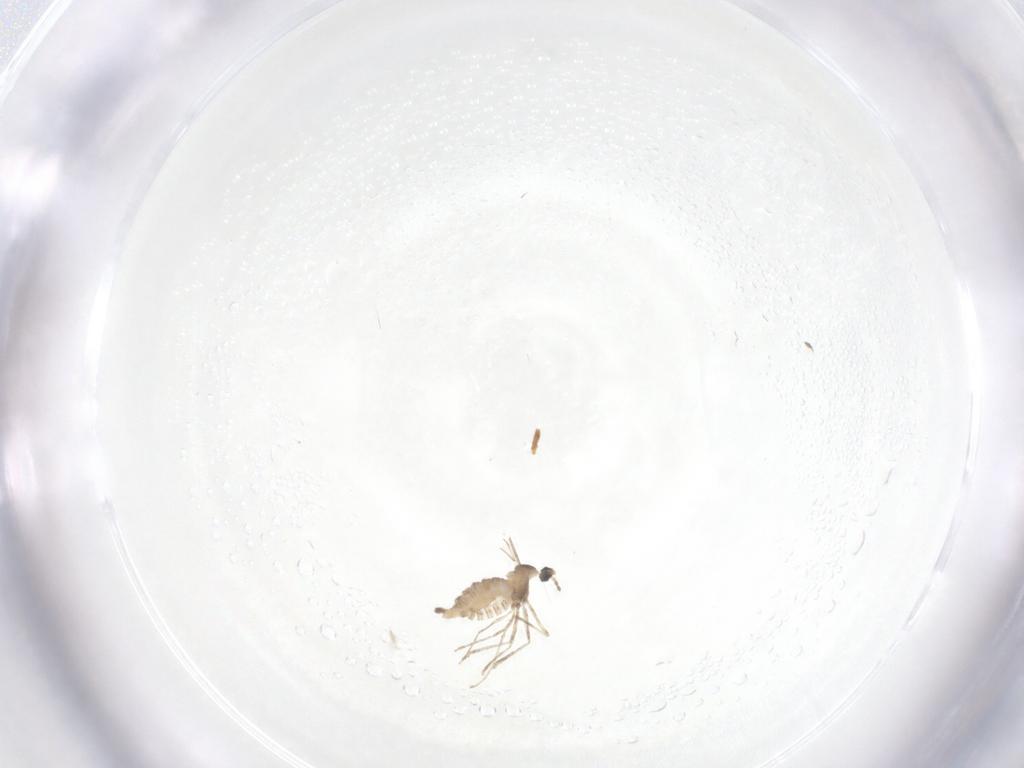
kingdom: Animalia
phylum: Arthropoda
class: Insecta
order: Diptera
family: Cecidomyiidae
